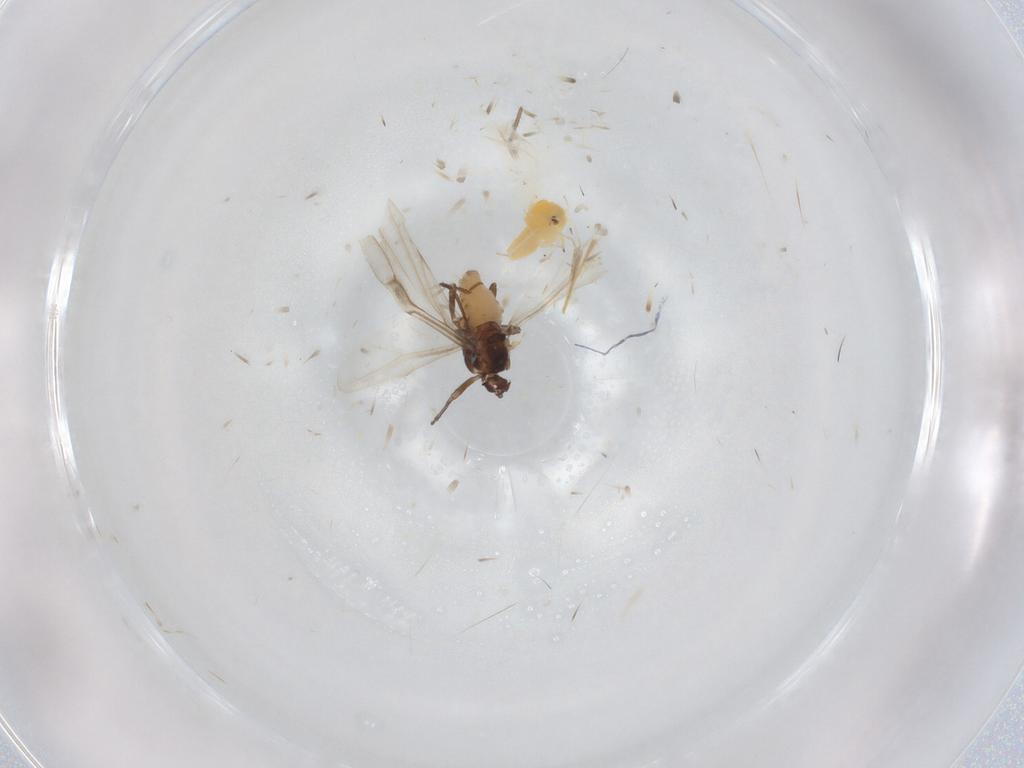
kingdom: Animalia
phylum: Arthropoda
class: Insecta
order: Hemiptera
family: Aphididae
